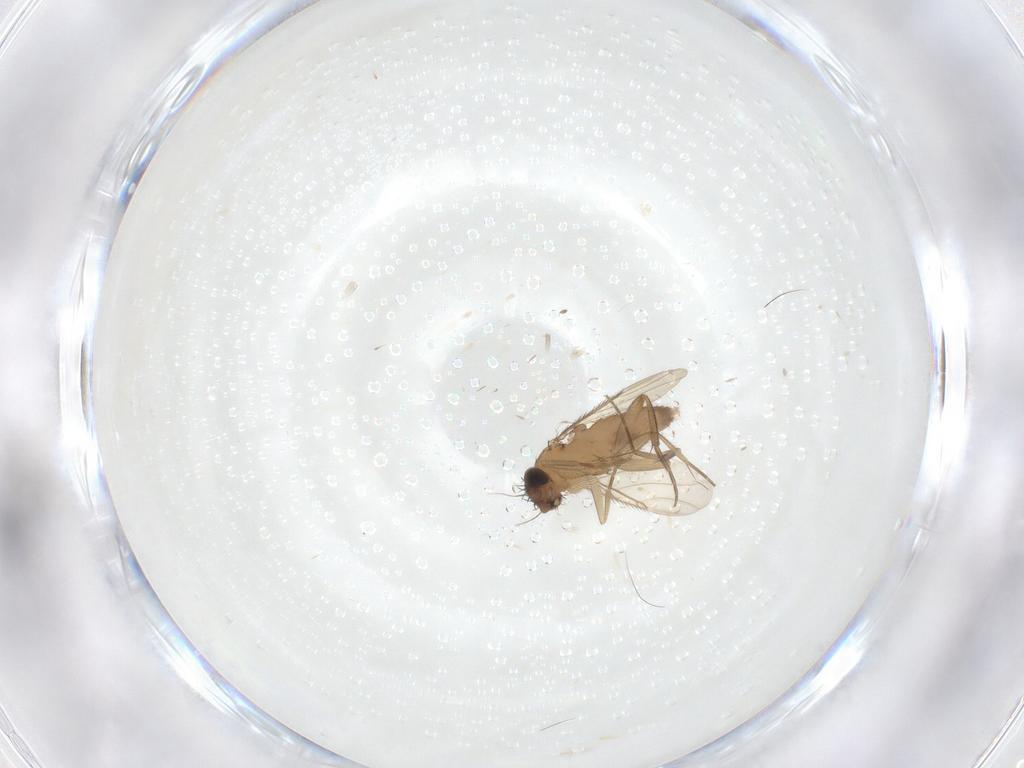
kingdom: Animalia
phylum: Arthropoda
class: Insecta
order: Diptera
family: Phoridae
